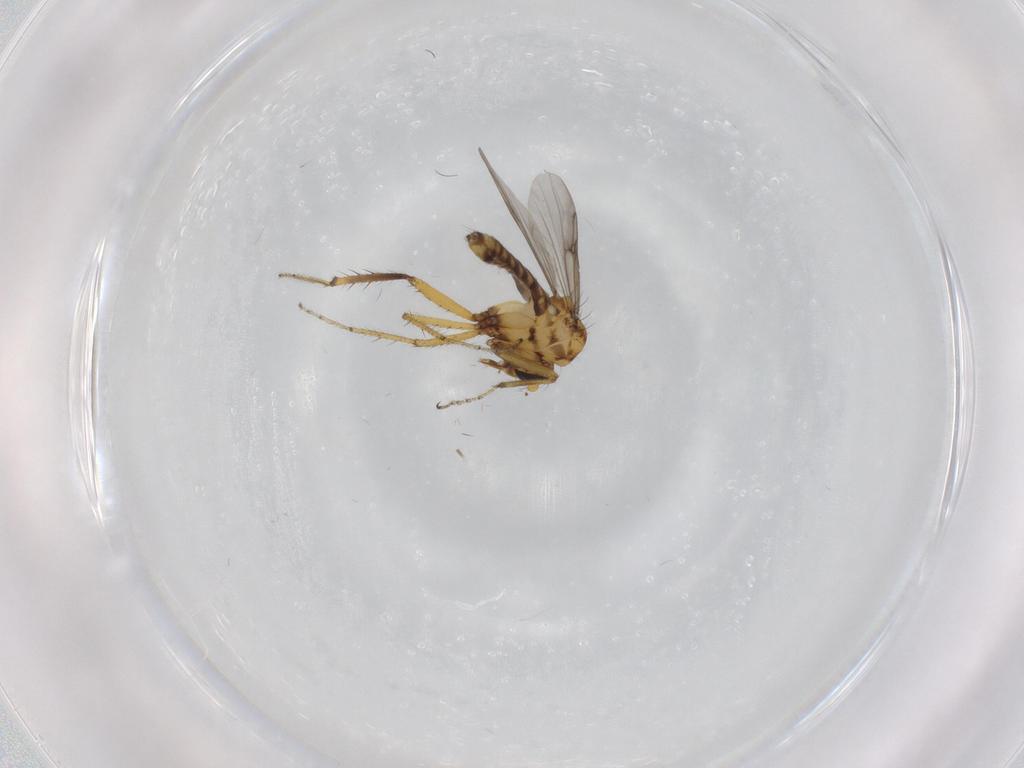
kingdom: Animalia
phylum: Arthropoda
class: Insecta
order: Diptera
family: Ceratopogonidae
